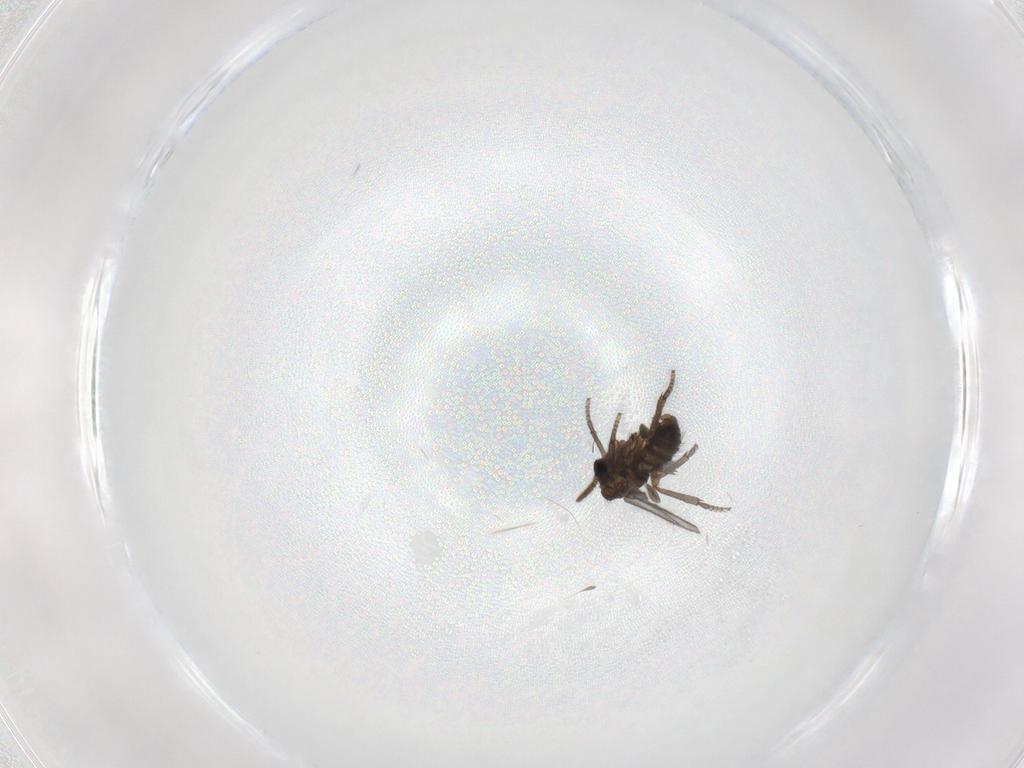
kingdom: Animalia
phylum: Arthropoda
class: Insecta
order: Diptera
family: Sciaridae
